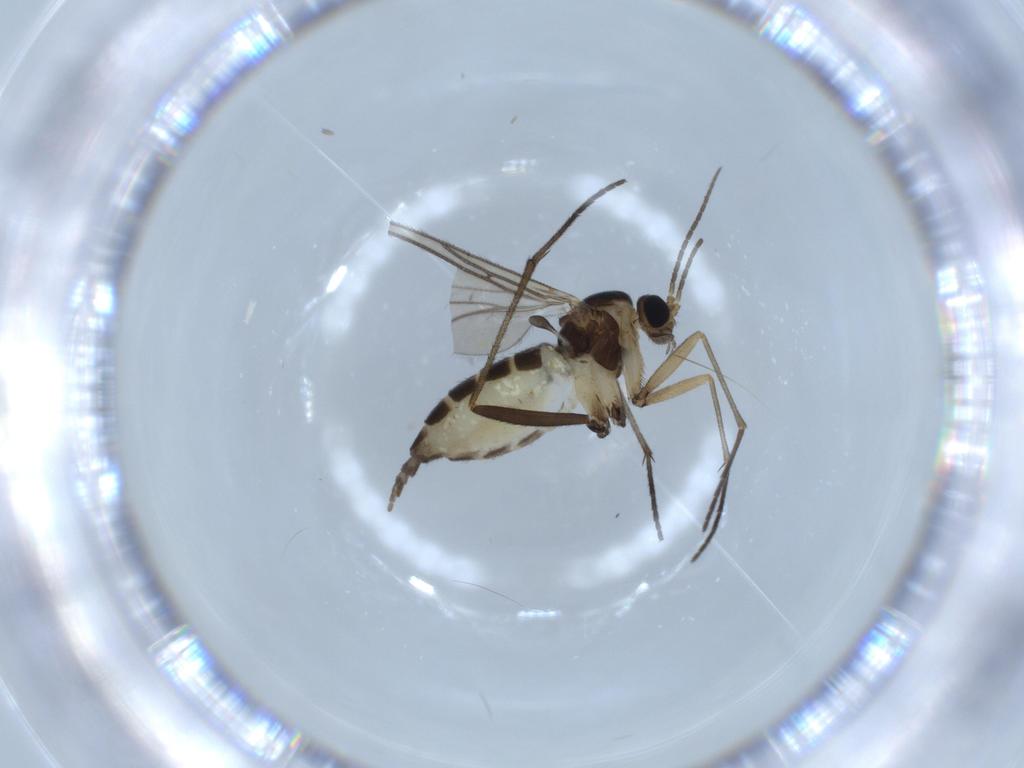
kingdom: Animalia
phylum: Arthropoda
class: Insecta
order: Diptera
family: Sciaridae
